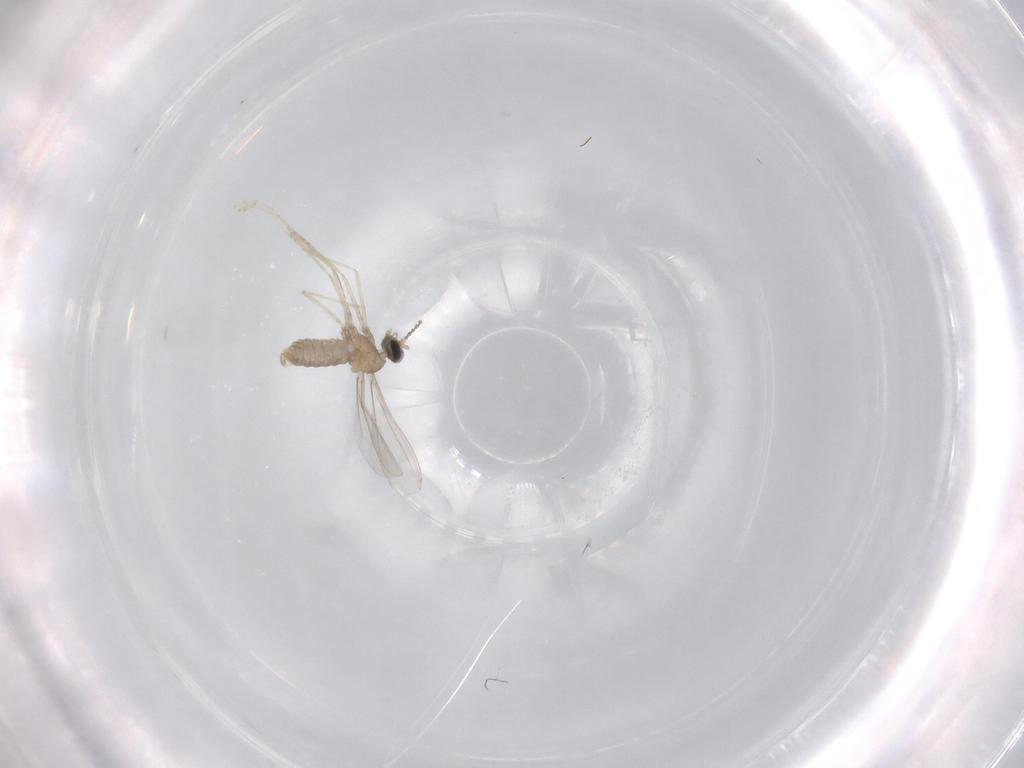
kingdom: Animalia
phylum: Arthropoda
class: Insecta
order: Diptera
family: Cecidomyiidae
